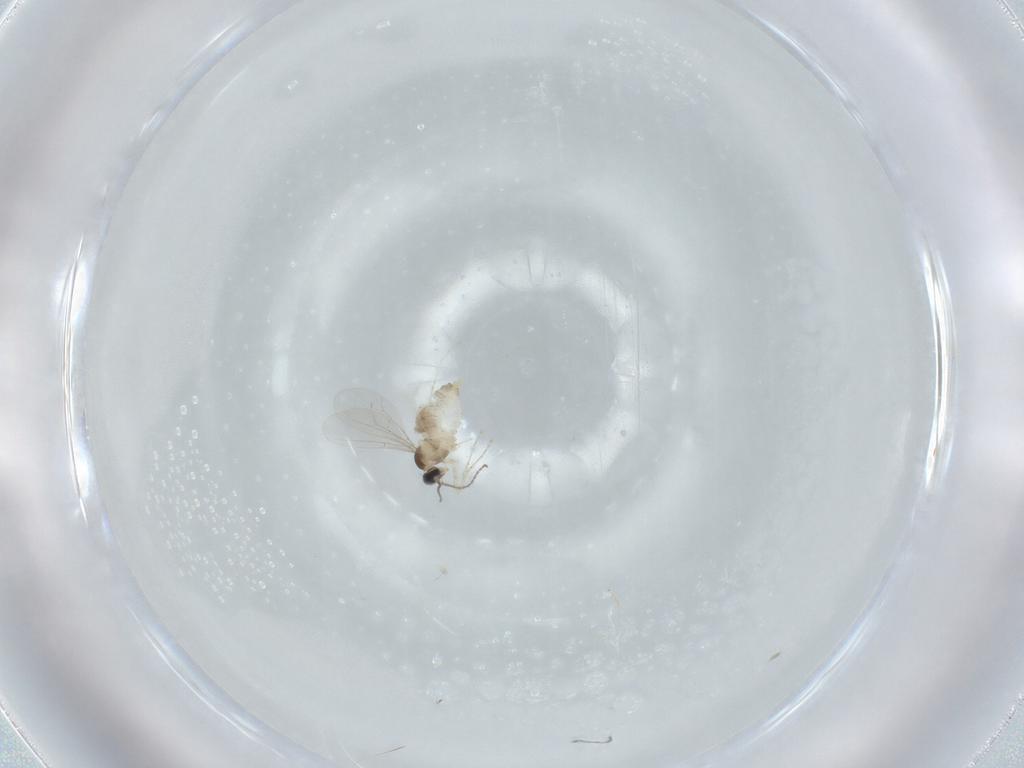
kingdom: Animalia
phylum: Arthropoda
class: Insecta
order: Diptera
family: Cecidomyiidae
